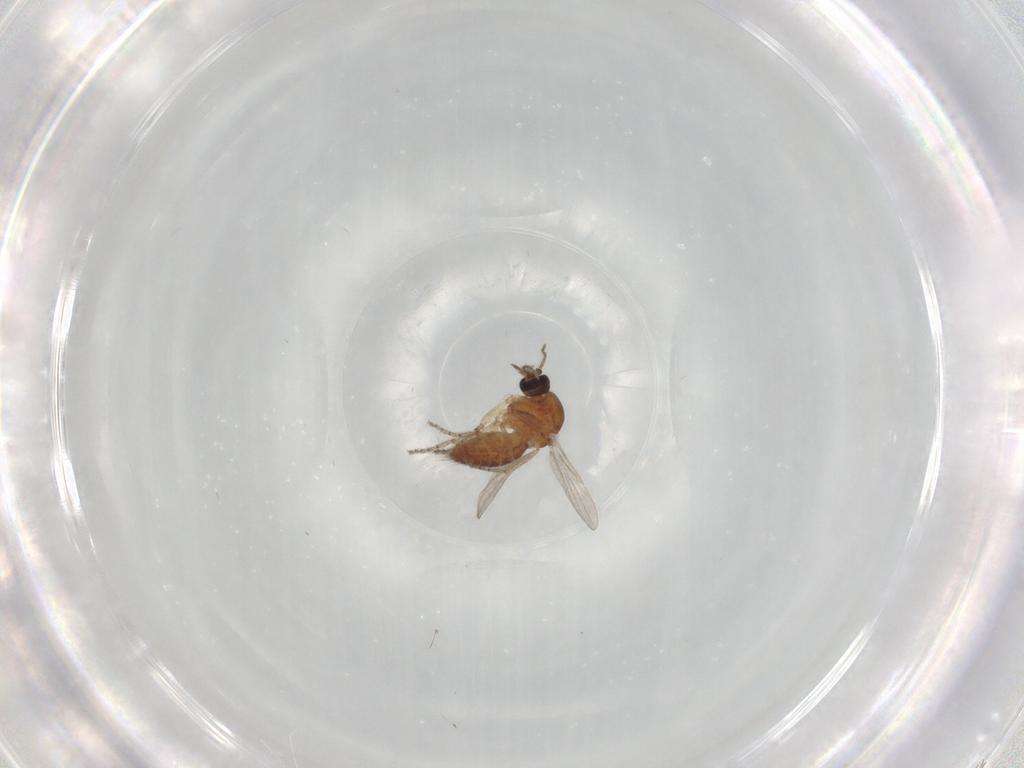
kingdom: Animalia
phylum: Arthropoda
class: Insecta
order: Diptera
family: Ceratopogonidae
